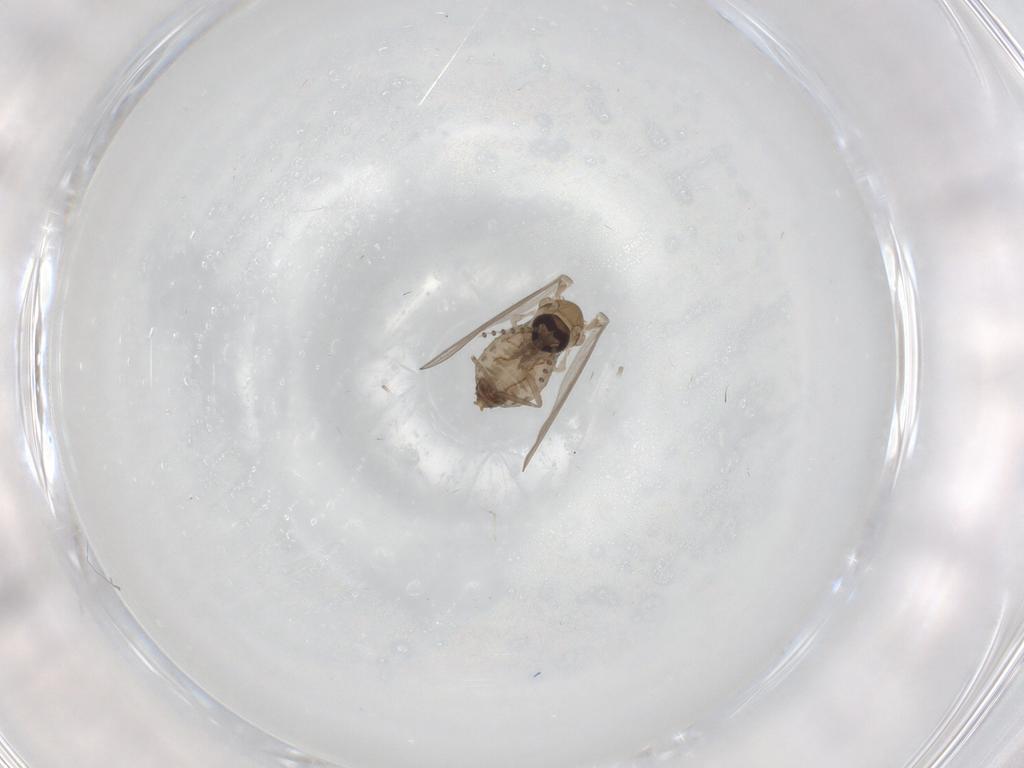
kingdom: Animalia
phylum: Arthropoda
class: Insecta
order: Diptera
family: Psychodidae
